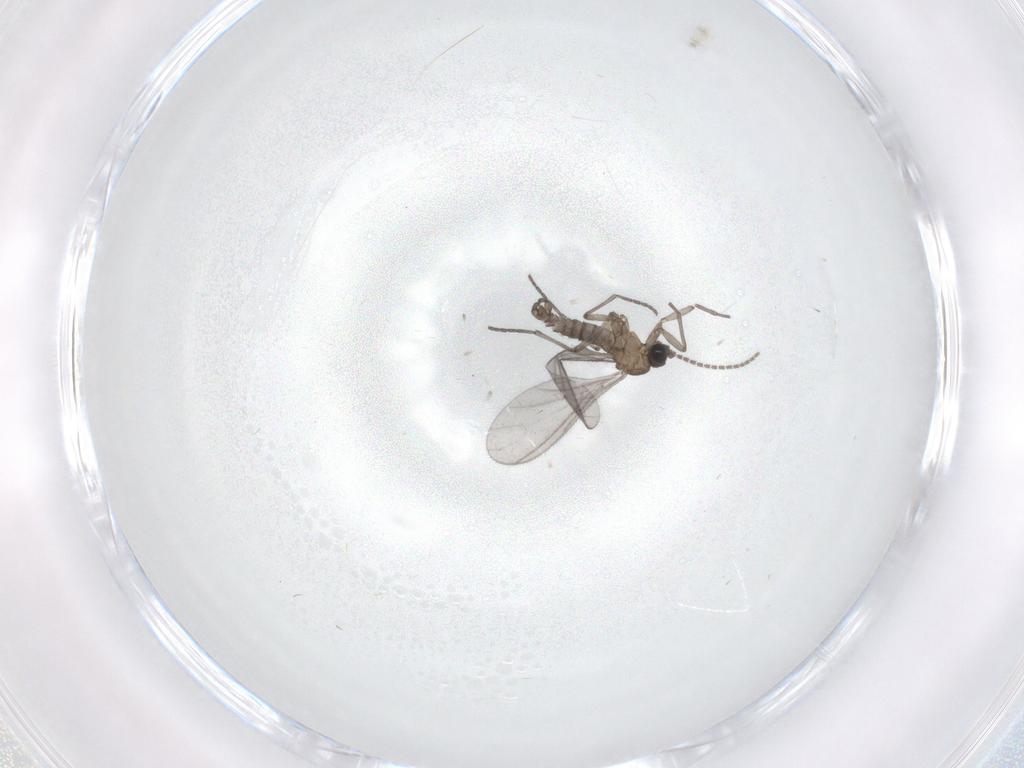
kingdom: Animalia
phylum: Arthropoda
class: Insecta
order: Diptera
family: Sciaridae
